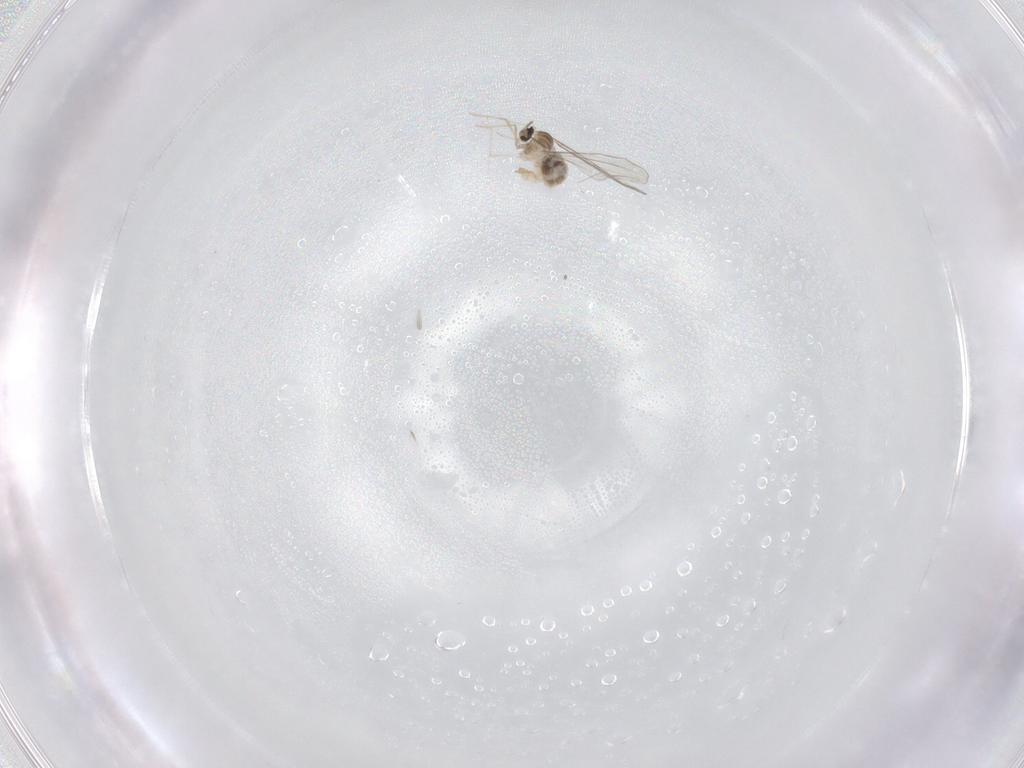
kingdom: Animalia
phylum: Arthropoda
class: Insecta
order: Diptera
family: Cecidomyiidae
